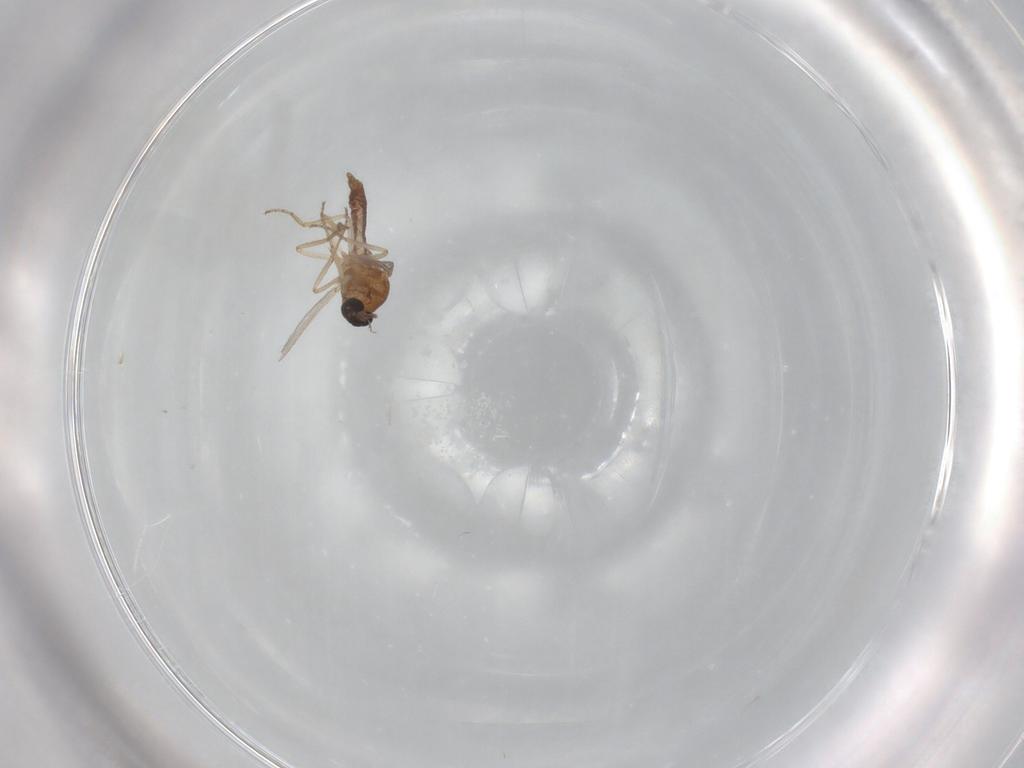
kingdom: Animalia
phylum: Arthropoda
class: Insecta
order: Diptera
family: Ceratopogonidae
